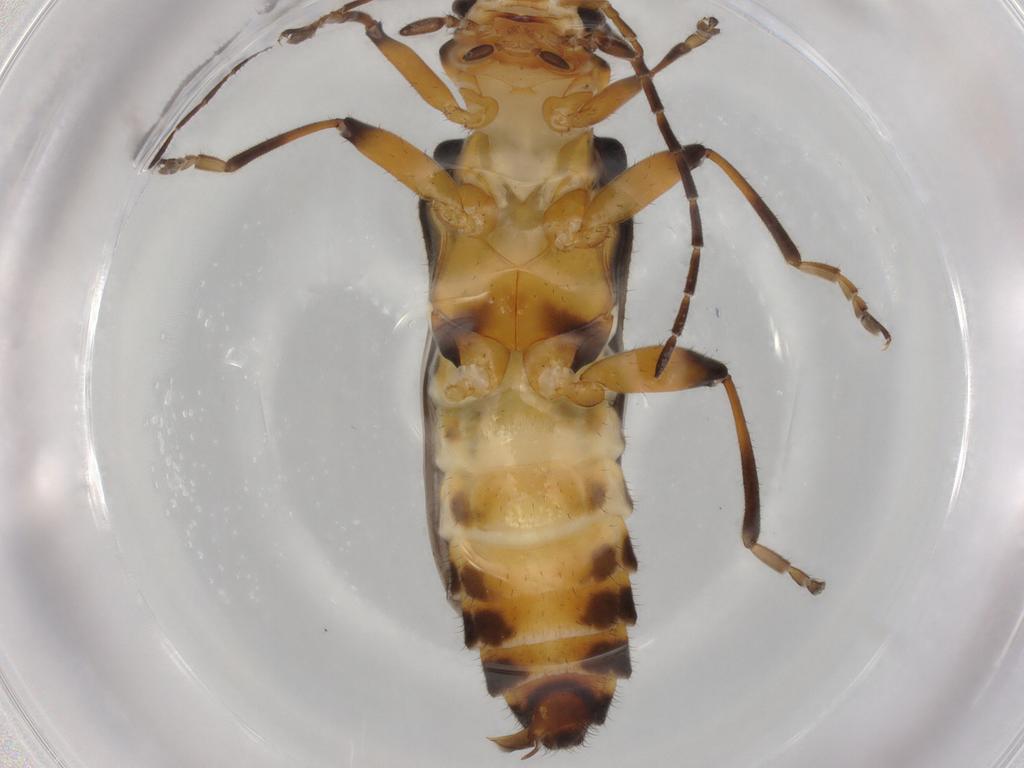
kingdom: Animalia
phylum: Arthropoda
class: Insecta
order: Coleoptera
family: Cantharidae
